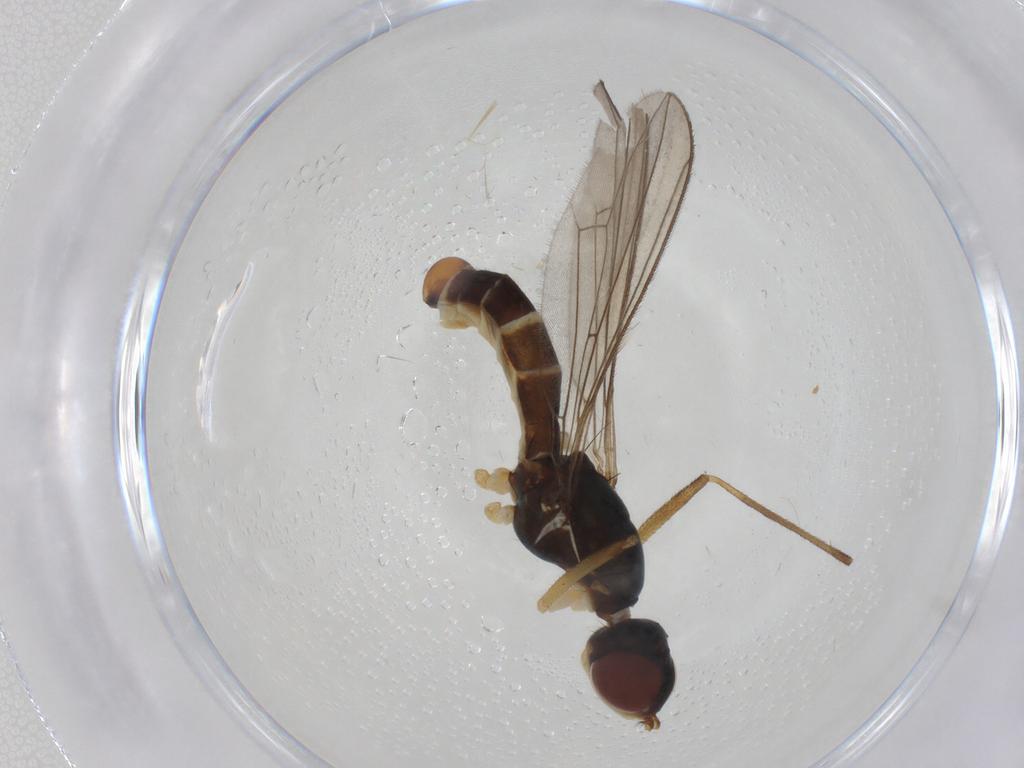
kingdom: Animalia
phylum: Arthropoda
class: Insecta
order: Diptera
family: Micropezidae
